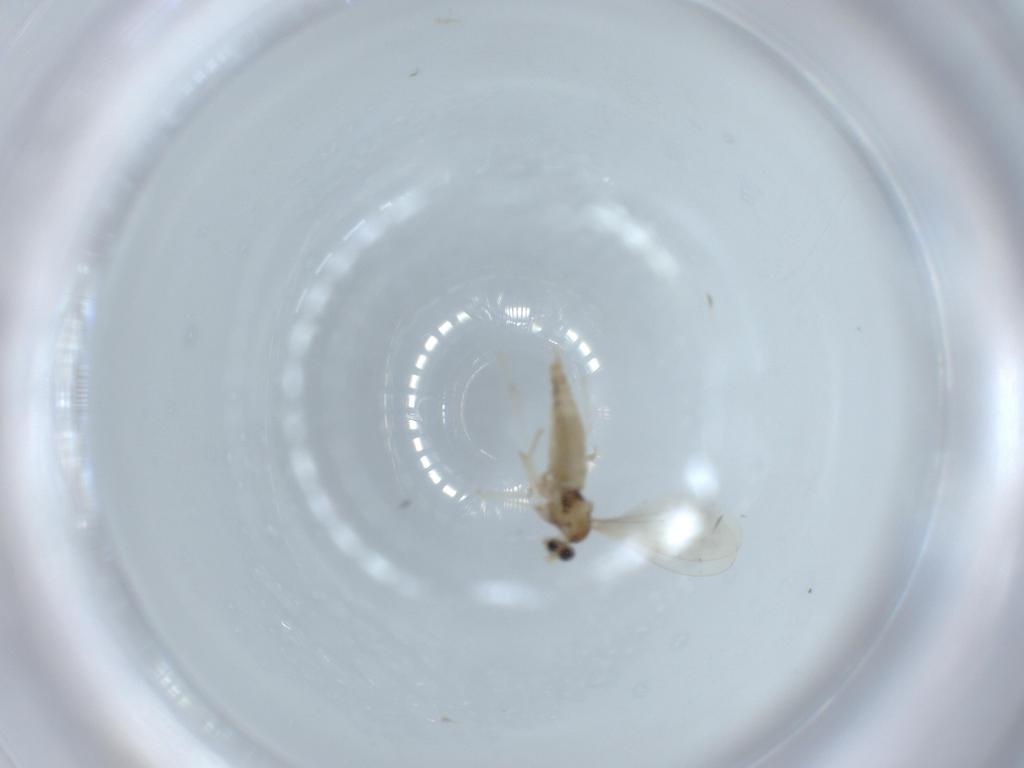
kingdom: Animalia
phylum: Arthropoda
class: Insecta
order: Diptera
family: Cecidomyiidae
